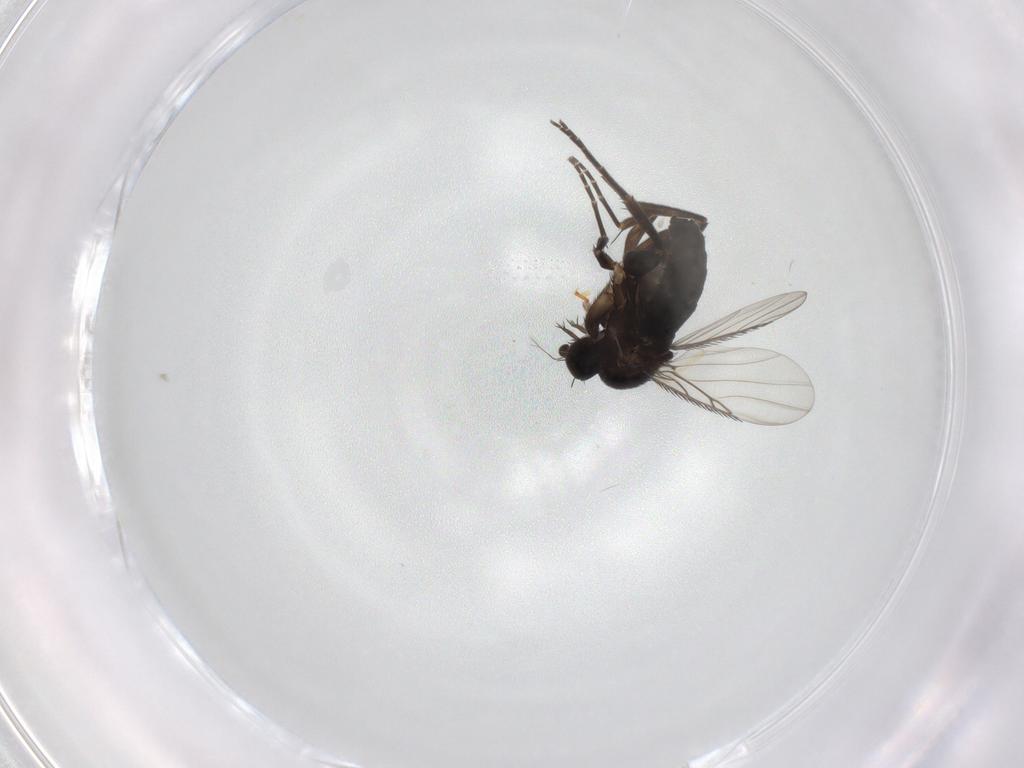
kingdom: Animalia
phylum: Arthropoda
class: Insecta
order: Diptera
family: Phoridae
